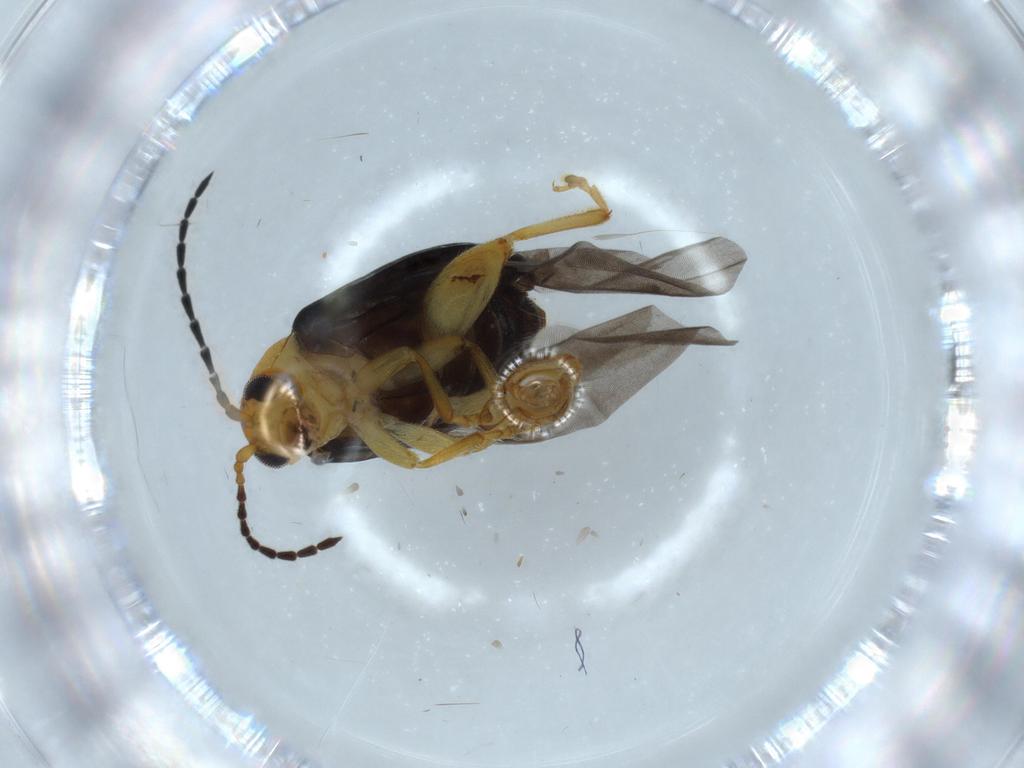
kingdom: Animalia
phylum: Arthropoda
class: Insecta
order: Coleoptera
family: Chrysomelidae
